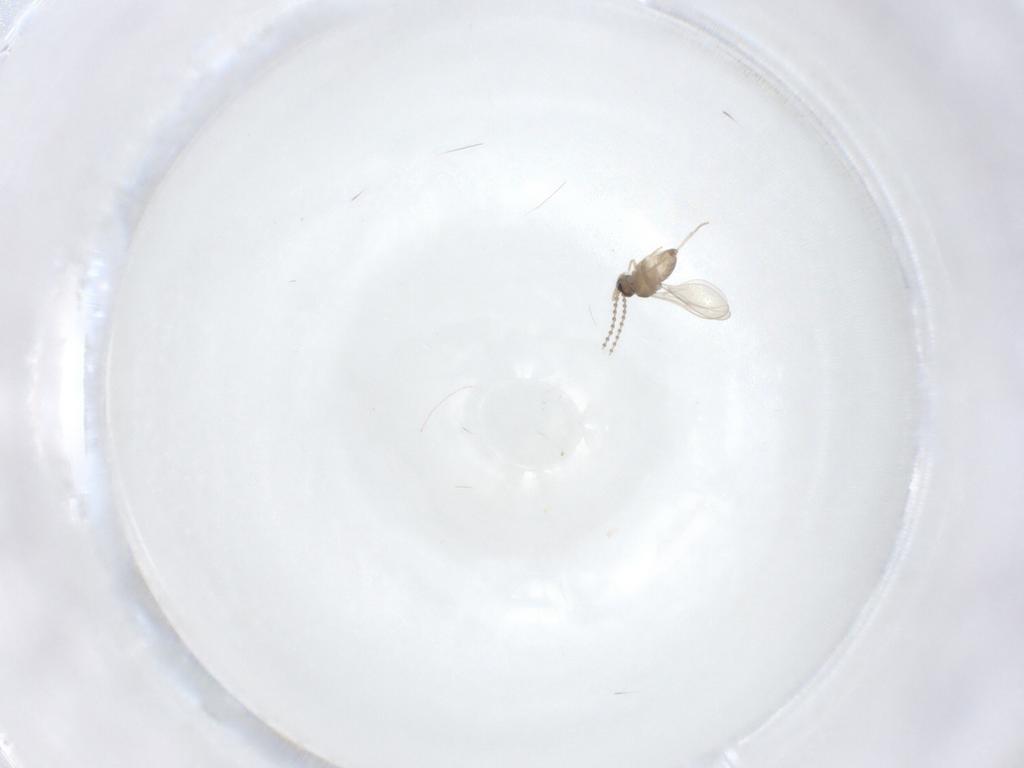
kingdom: Animalia
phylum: Arthropoda
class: Insecta
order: Diptera
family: Cecidomyiidae
